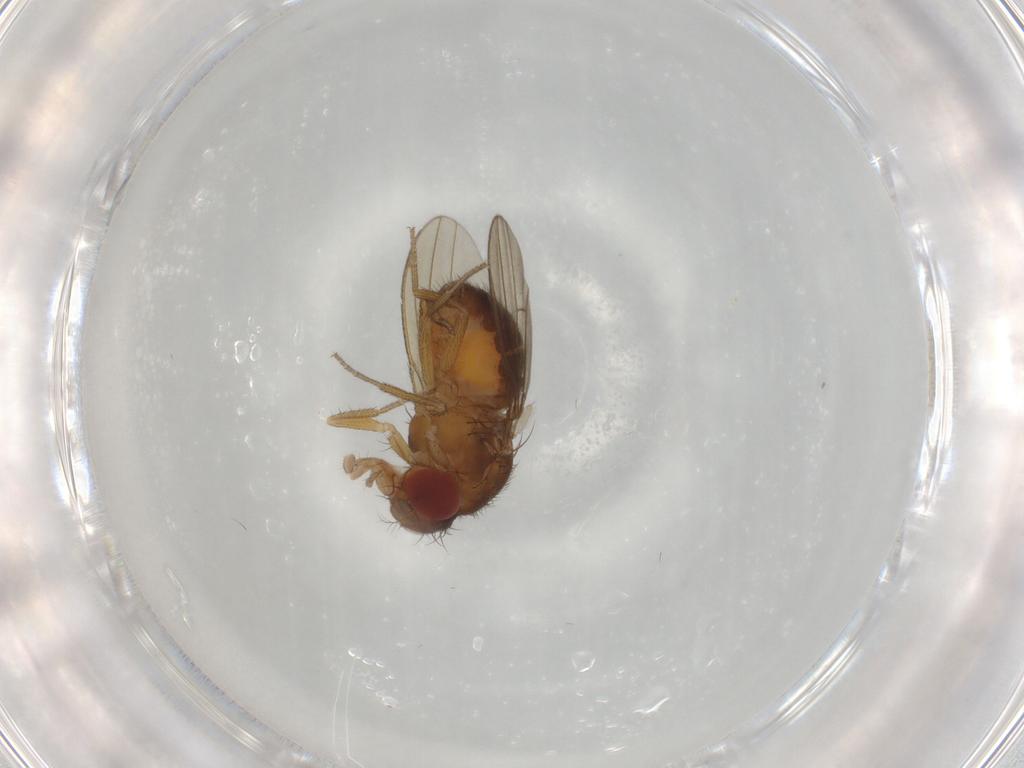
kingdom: Animalia
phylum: Arthropoda
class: Insecta
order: Diptera
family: Drosophilidae
